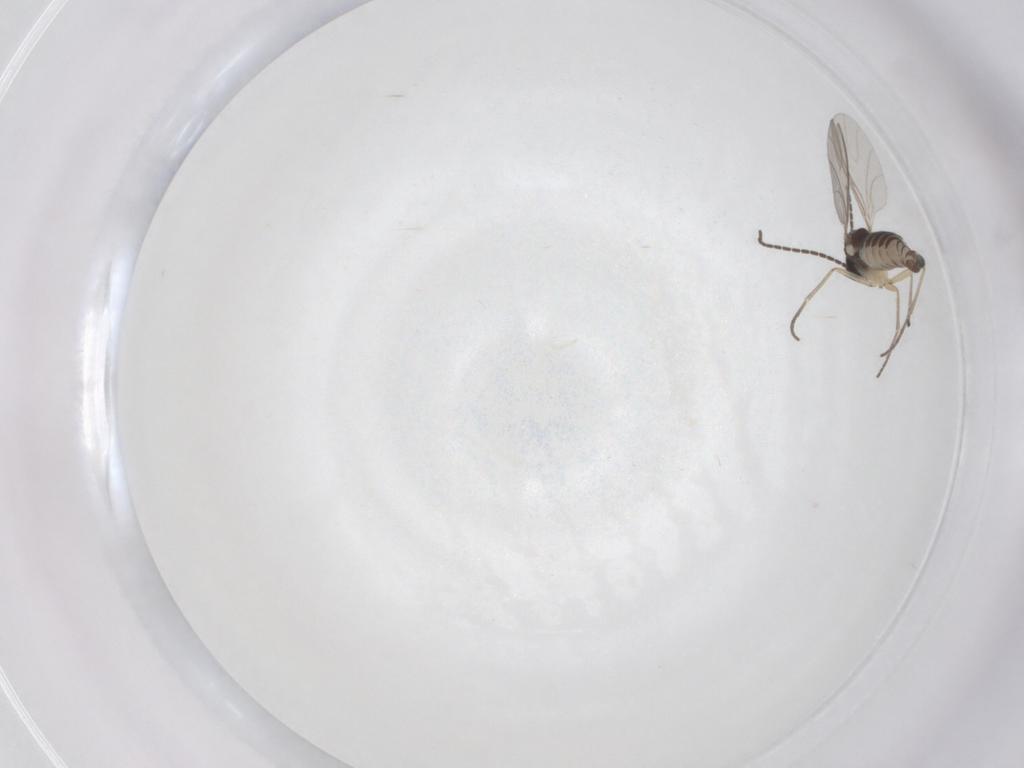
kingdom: Animalia
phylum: Arthropoda
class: Insecta
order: Diptera
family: Sciaridae
